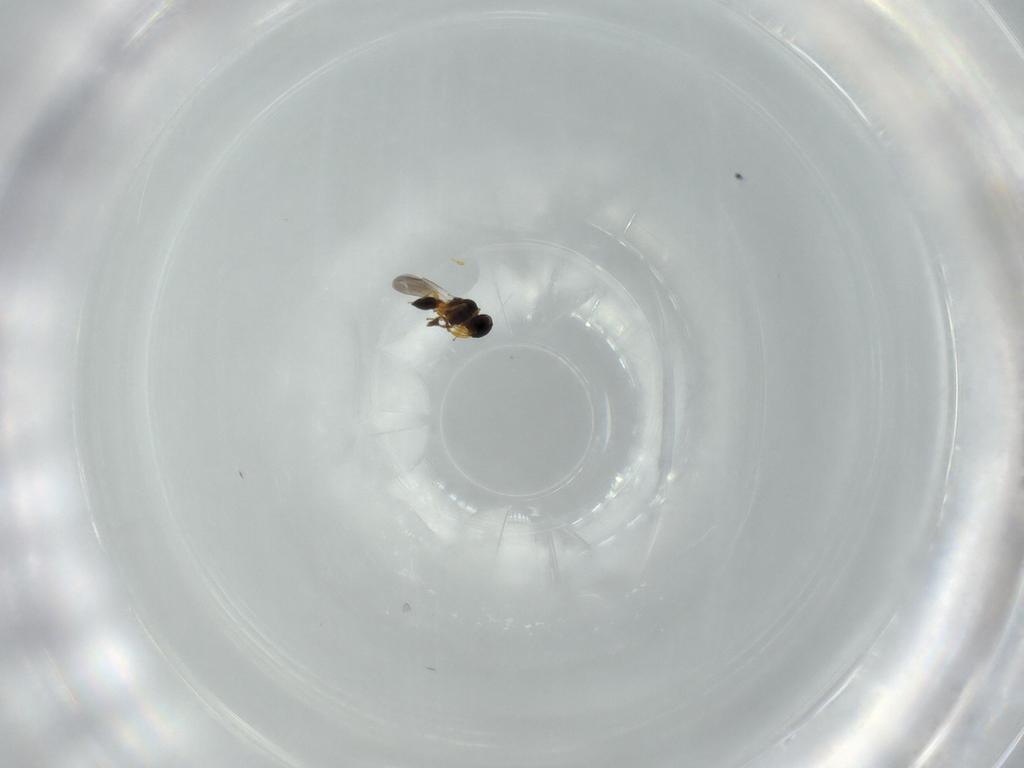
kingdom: Animalia
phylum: Arthropoda
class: Insecta
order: Hymenoptera
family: Platygastridae
